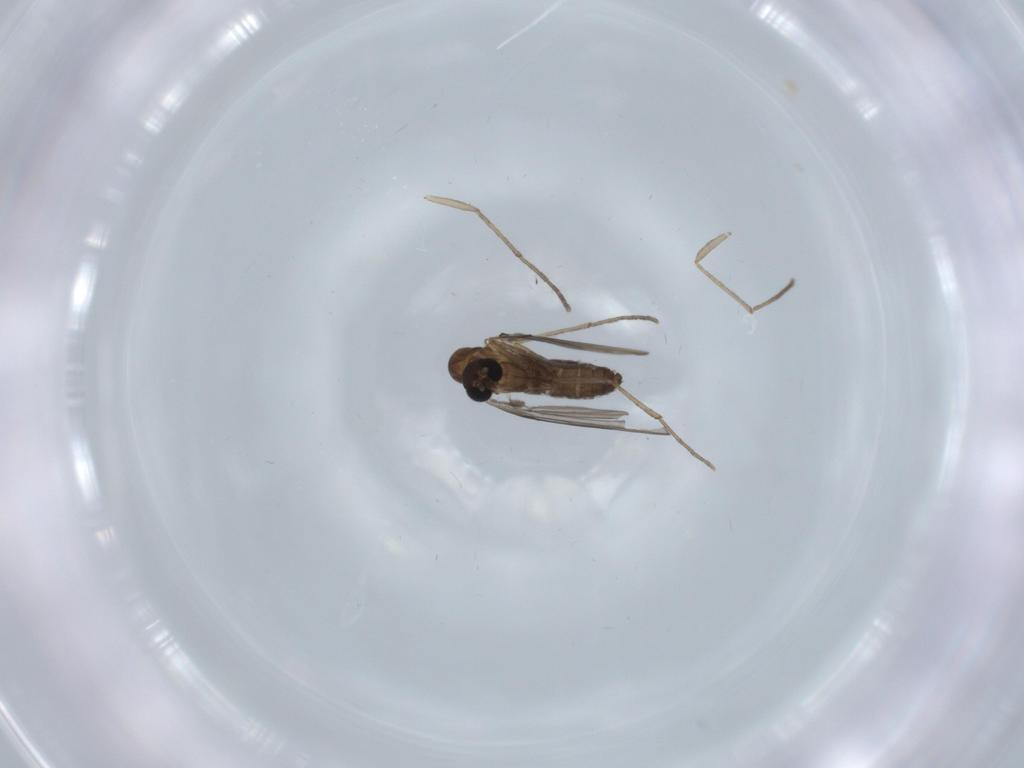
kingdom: Animalia
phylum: Arthropoda
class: Insecta
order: Diptera
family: Psychodidae
